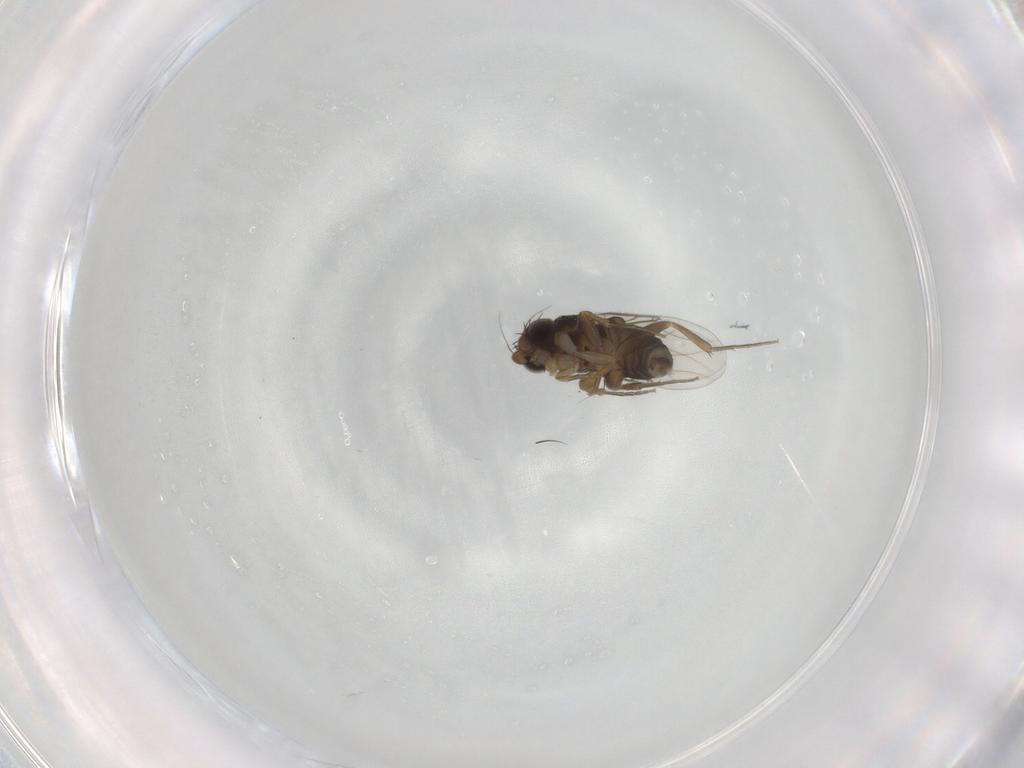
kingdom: Animalia
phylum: Arthropoda
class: Insecta
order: Diptera
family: Phoridae
